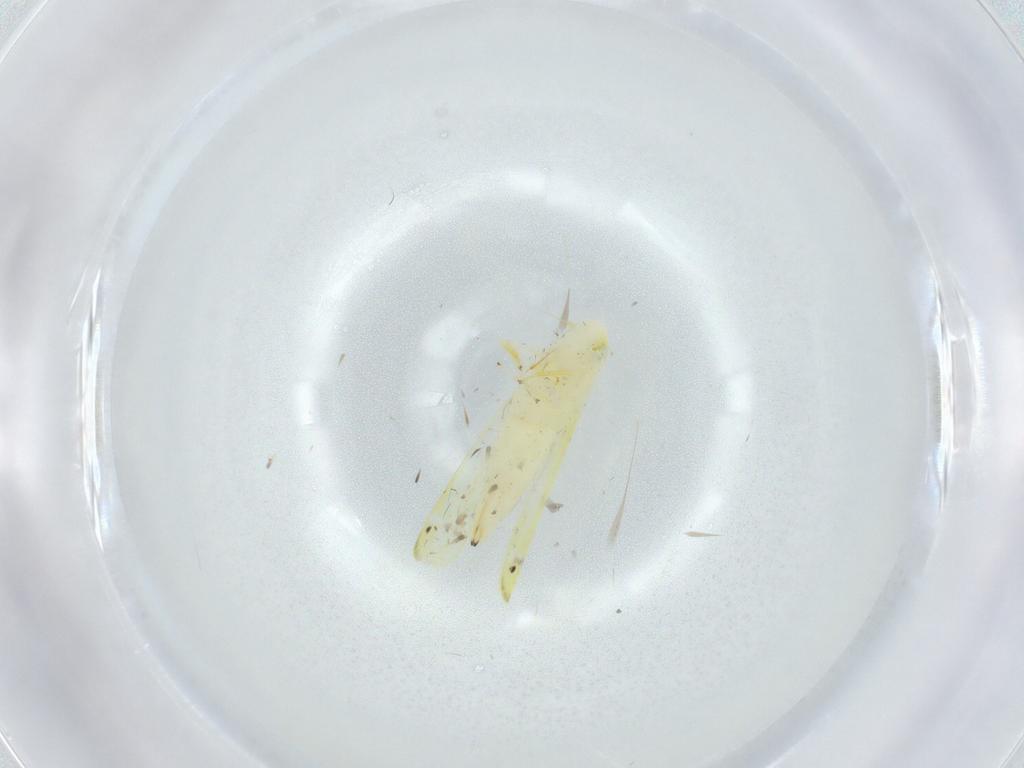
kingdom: Animalia
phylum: Arthropoda
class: Insecta
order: Hemiptera
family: Cicadellidae
